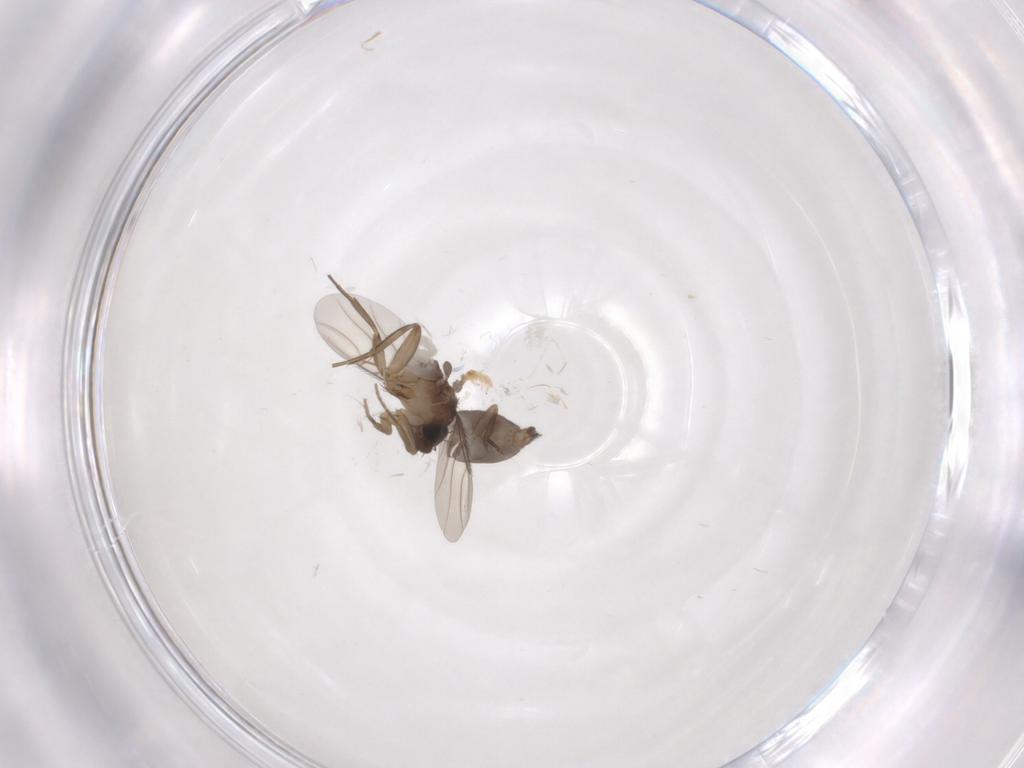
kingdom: Animalia
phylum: Arthropoda
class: Insecta
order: Diptera
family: Phoridae
